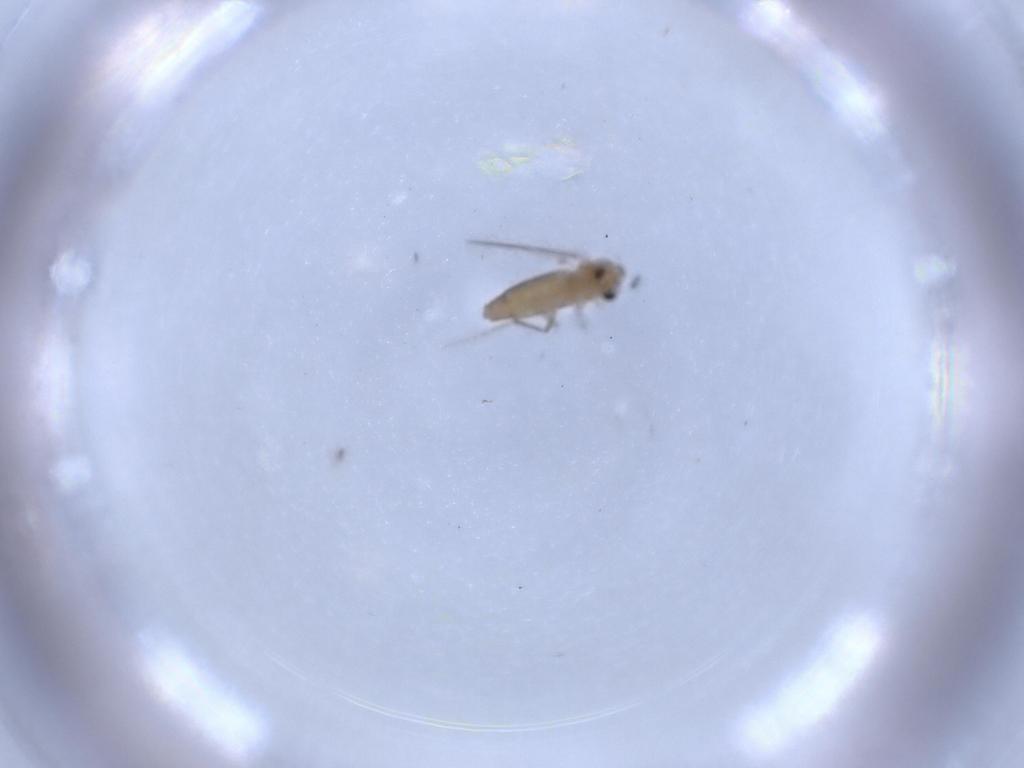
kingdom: Animalia
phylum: Arthropoda
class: Insecta
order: Diptera
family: Chironomidae
